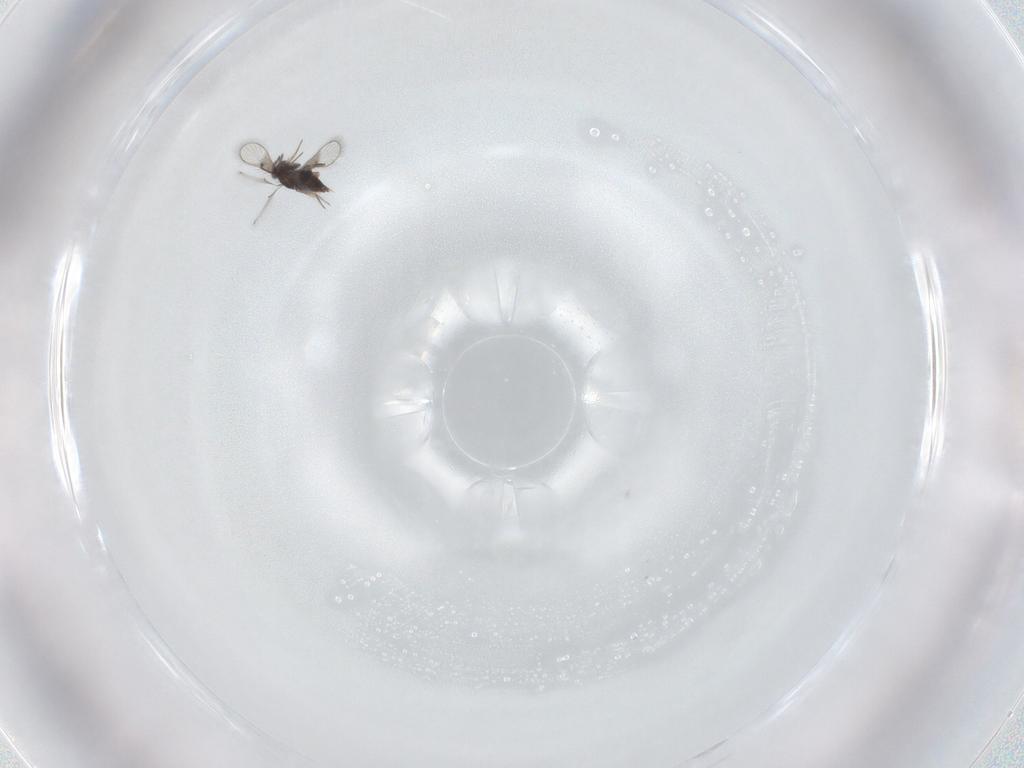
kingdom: Animalia
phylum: Arthropoda
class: Insecta
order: Hymenoptera
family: Trichogrammatidae
